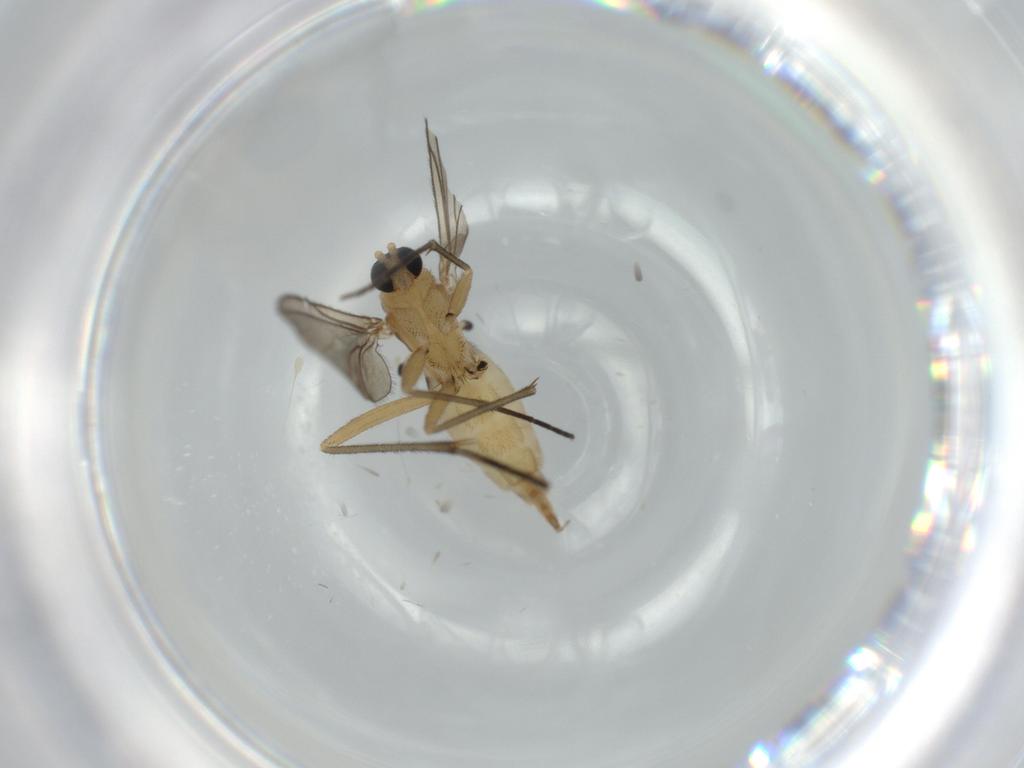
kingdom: Animalia
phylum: Arthropoda
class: Insecta
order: Diptera
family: Sciaridae
